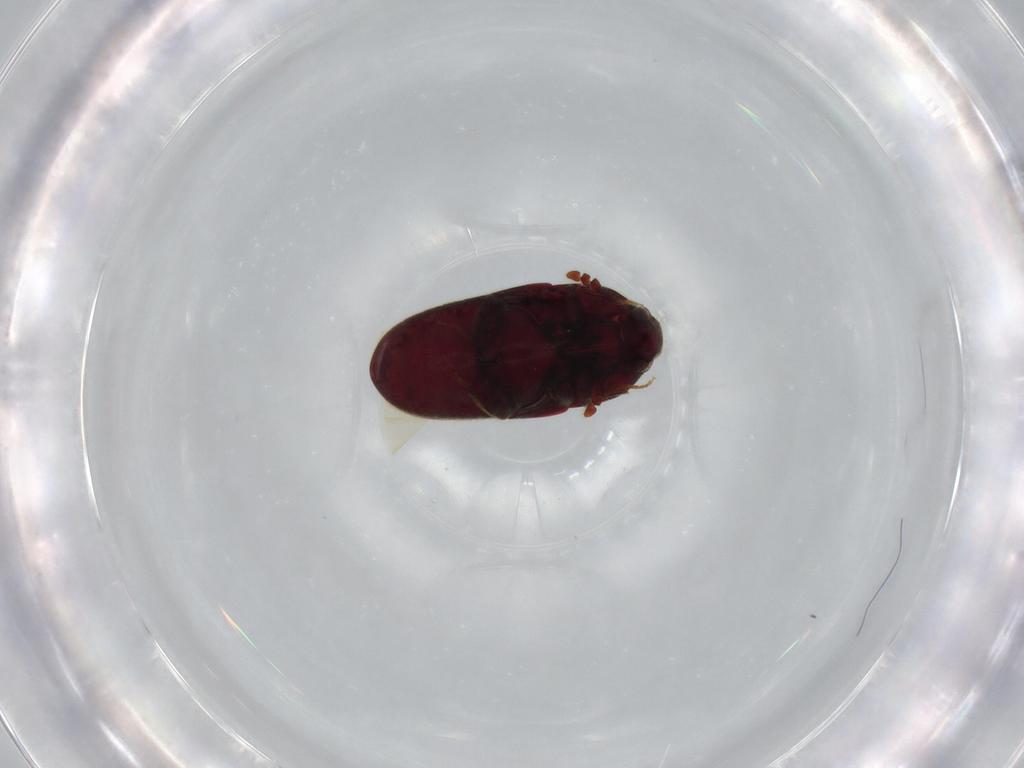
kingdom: Animalia
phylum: Arthropoda
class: Insecta
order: Coleoptera
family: Throscidae
